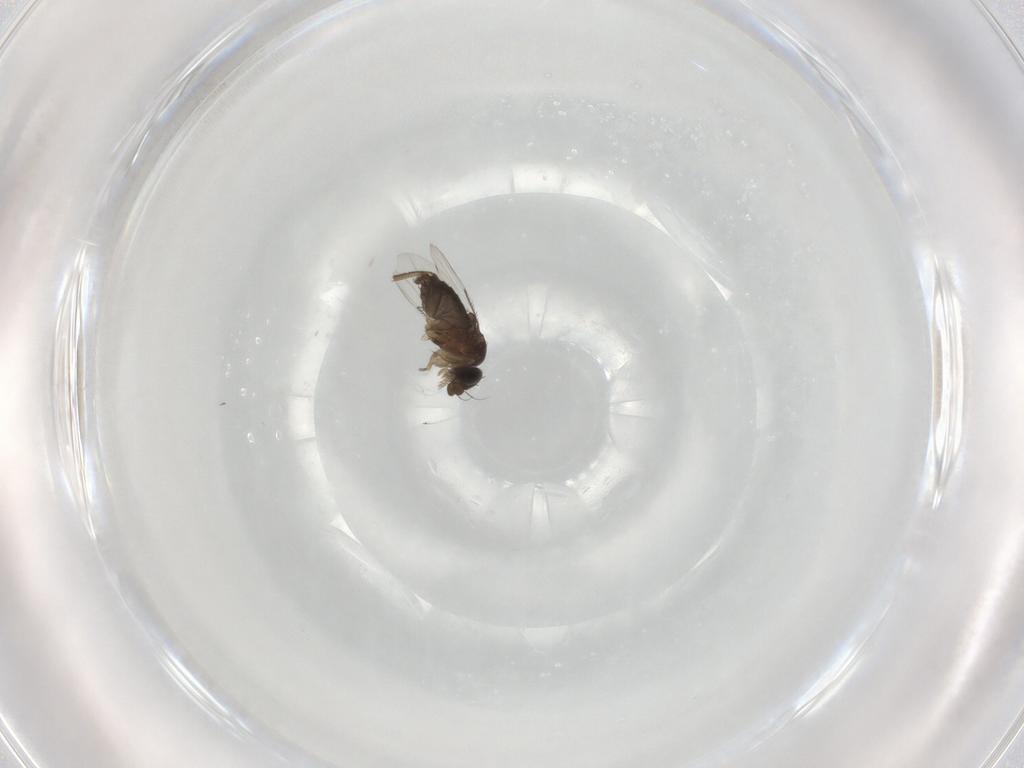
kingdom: Animalia
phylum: Arthropoda
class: Insecta
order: Diptera
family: Phoridae
